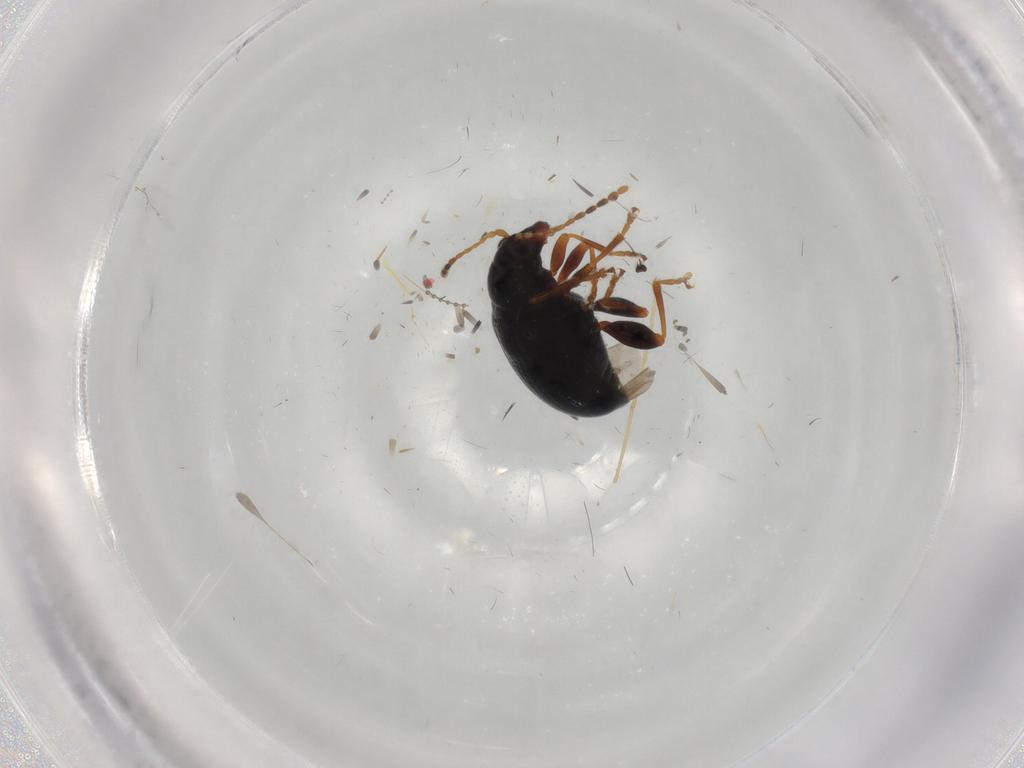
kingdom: Animalia
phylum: Arthropoda
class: Insecta
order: Coleoptera
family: Chrysomelidae
